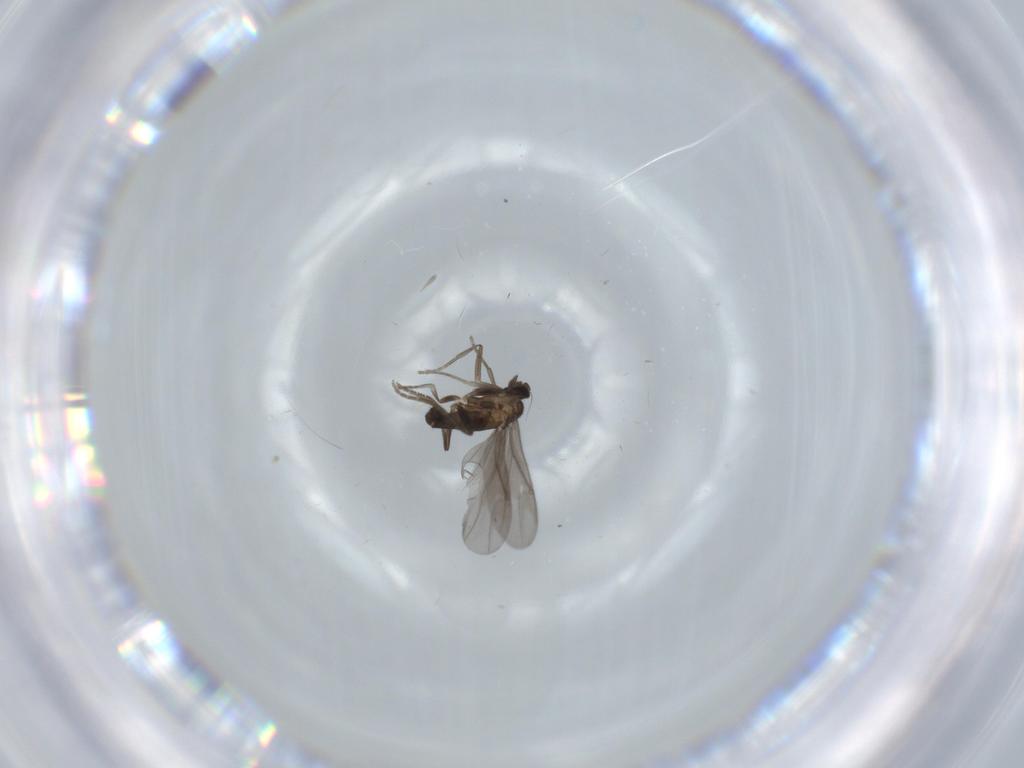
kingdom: Animalia
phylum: Arthropoda
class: Insecta
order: Diptera
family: Phoridae
